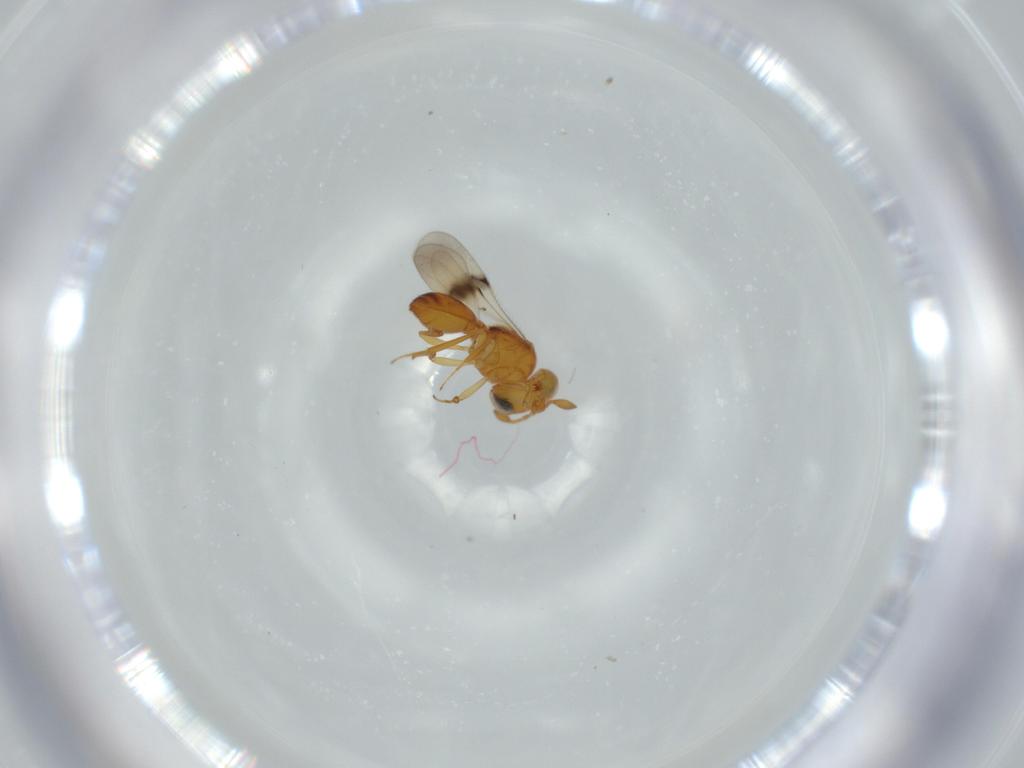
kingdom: Animalia
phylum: Arthropoda
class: Insecta
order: Hymenoptera
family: Scelionidae
